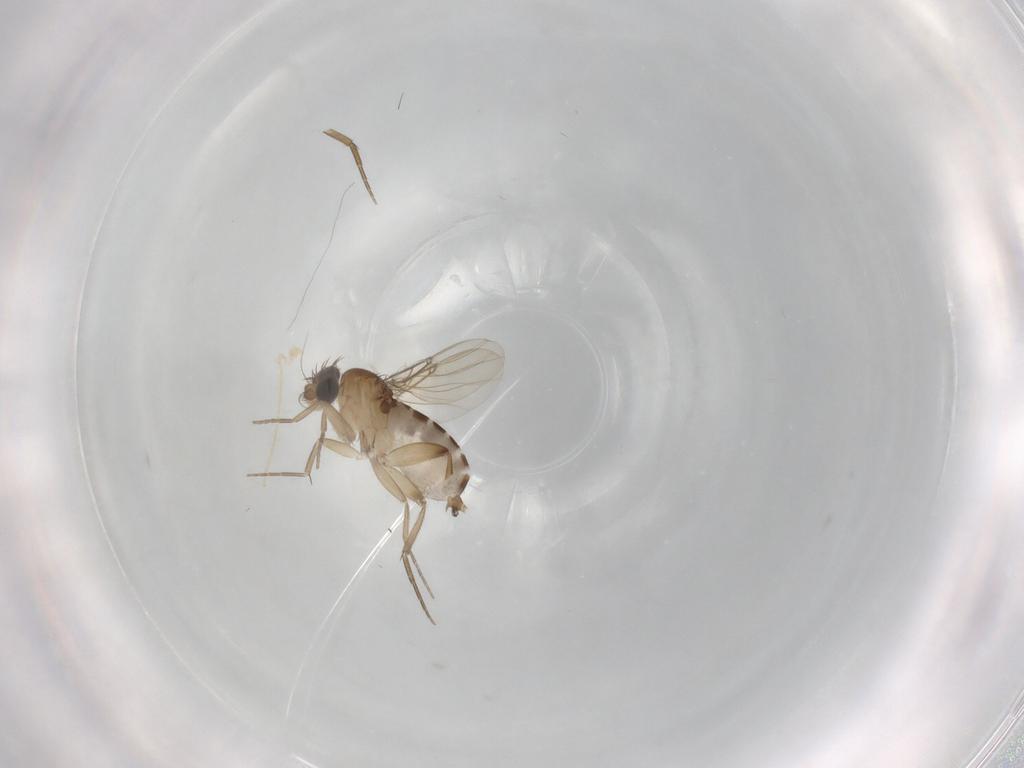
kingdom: Animalia
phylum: Arthropoda
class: Insecta
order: Diptera
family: Phoridae
